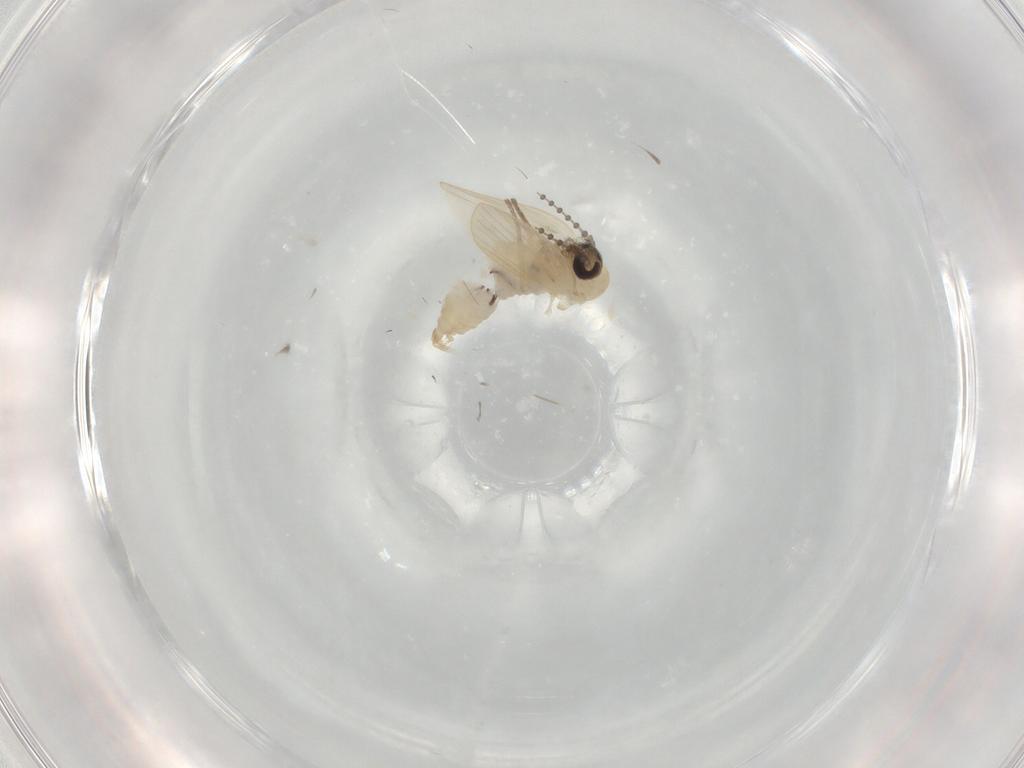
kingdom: Animalia
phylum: Arthropoda
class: Insecta
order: Diptera
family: Psychodidae
